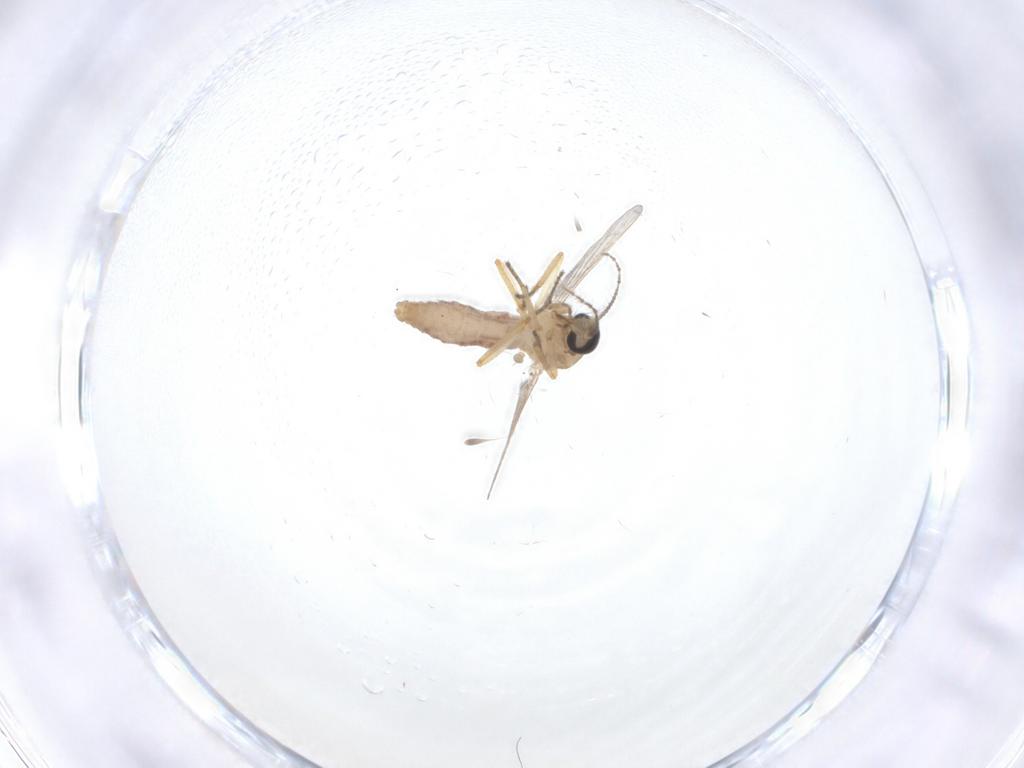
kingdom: Animalia
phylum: Arthropoda
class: Insecta
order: Diptera
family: Ceratopogonidae
